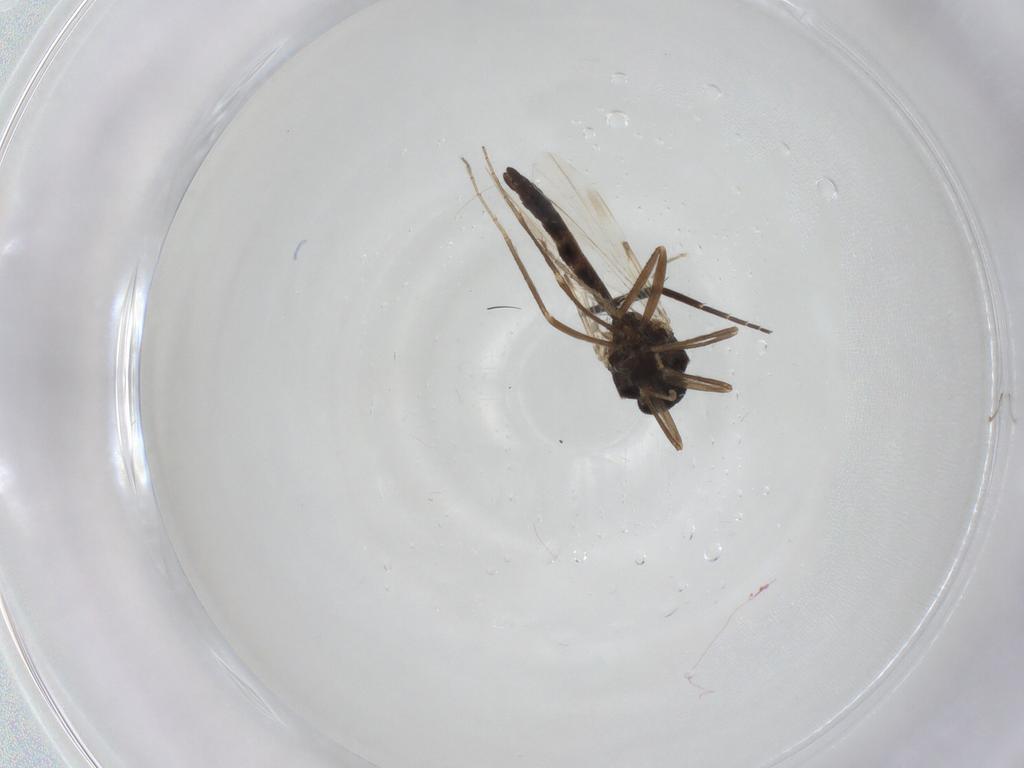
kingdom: Animalia
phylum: Arthropoda
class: Insecta
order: Diptera
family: Ceratopogonidae
